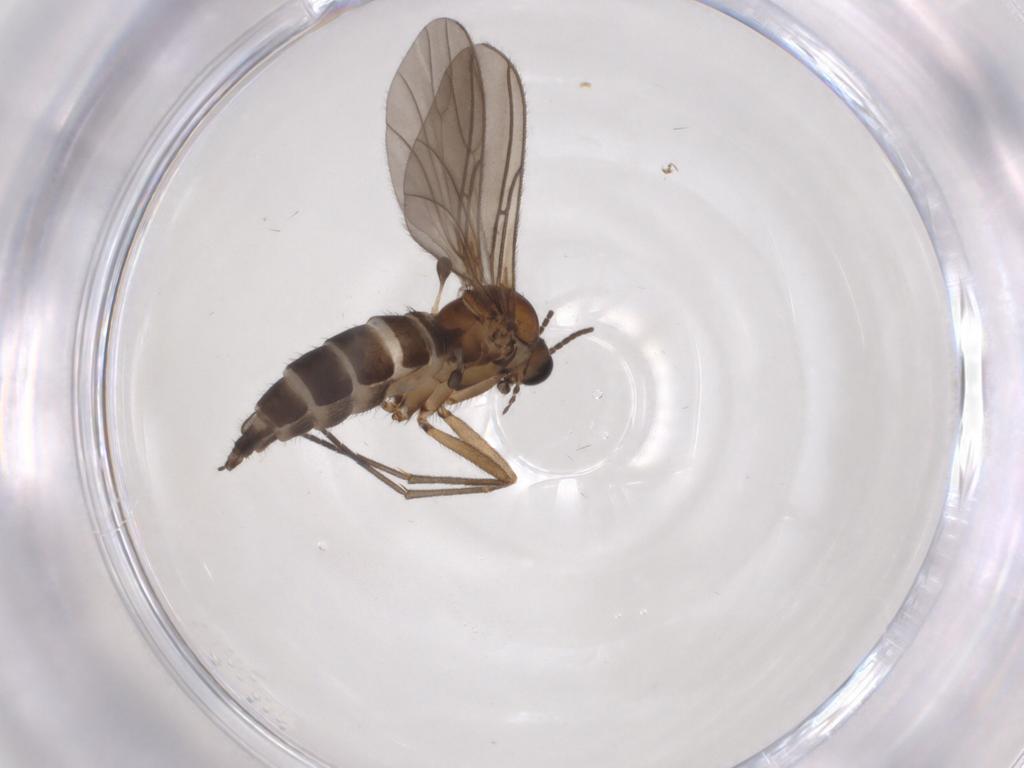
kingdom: Animalia
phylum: Arthropoda
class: Insecta
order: Diptera
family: Sciaridae
